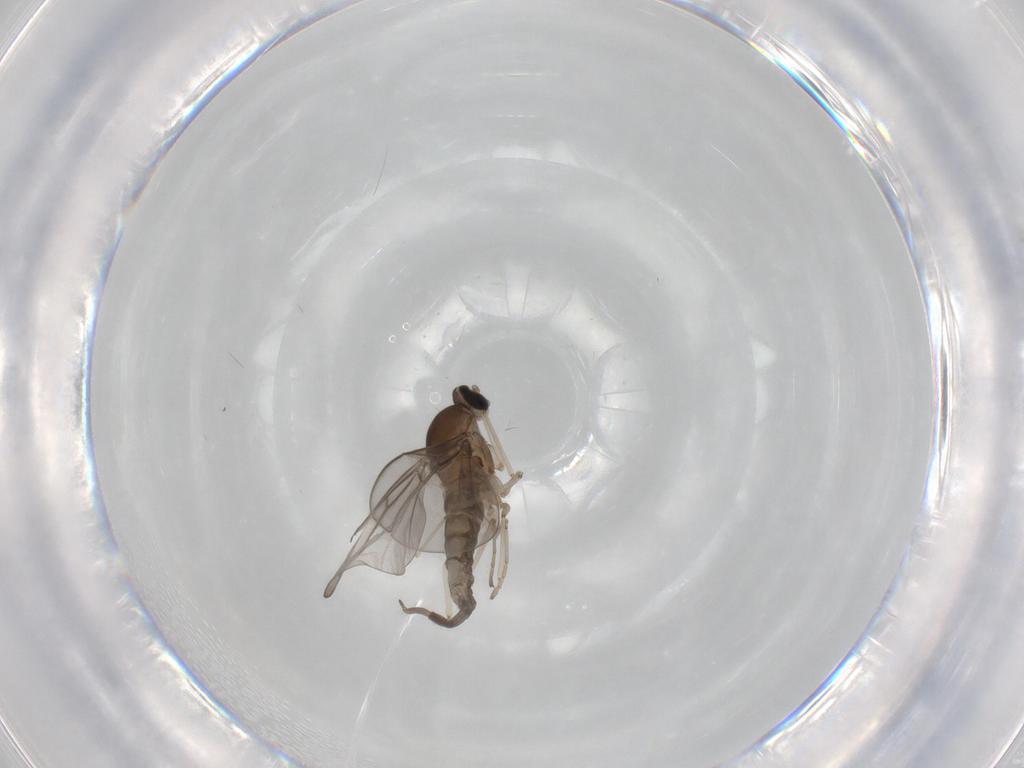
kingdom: Animalia
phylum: Arthropoda
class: Insecta
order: Diptera
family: Cecidomyiidae
